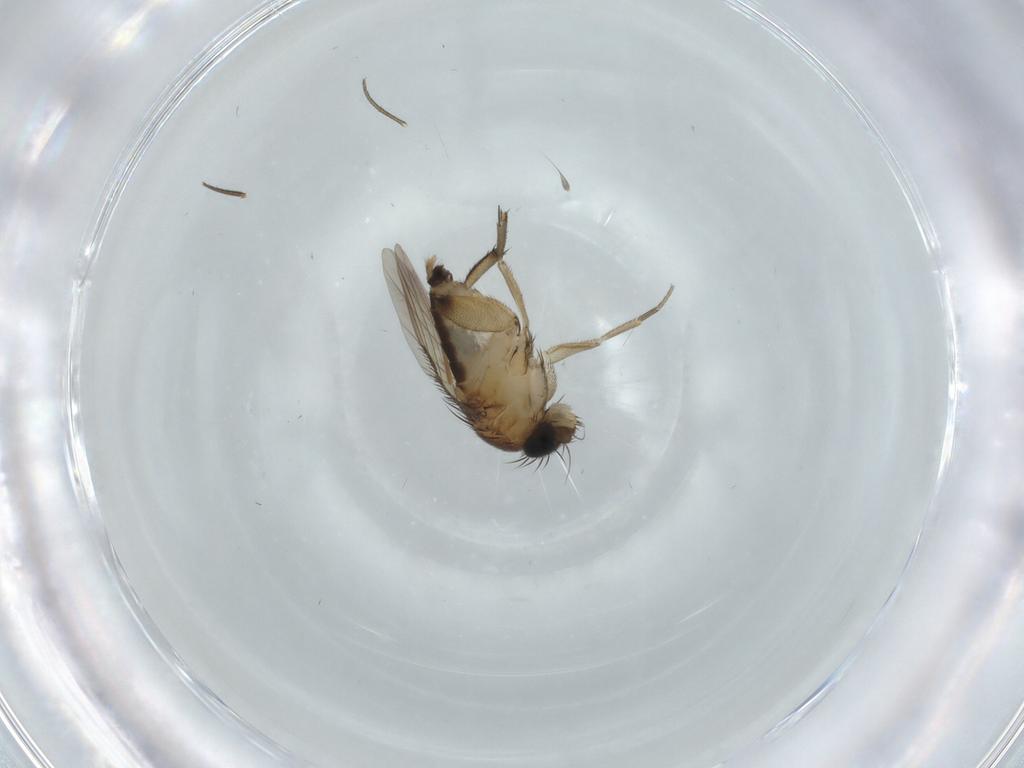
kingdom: Animalia
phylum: Arthropoda
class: Insecta
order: Diptera
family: Phoridae
